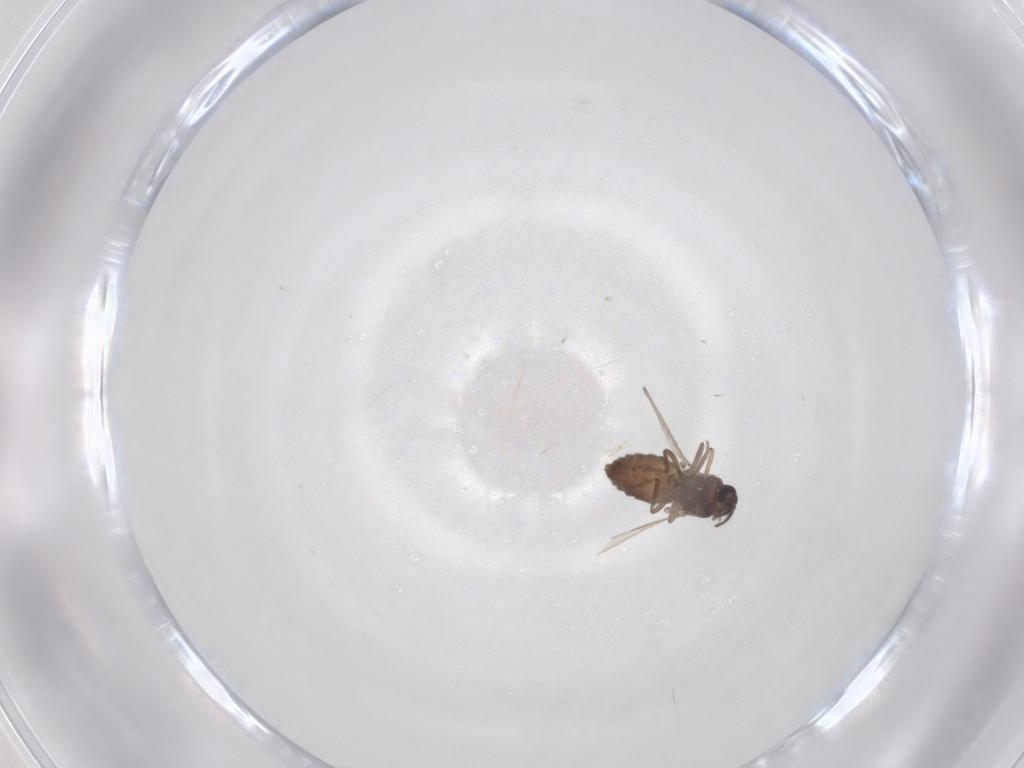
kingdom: Animalia
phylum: Arthropoda
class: Insecta
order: Diptera
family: Ceratopogonidae
